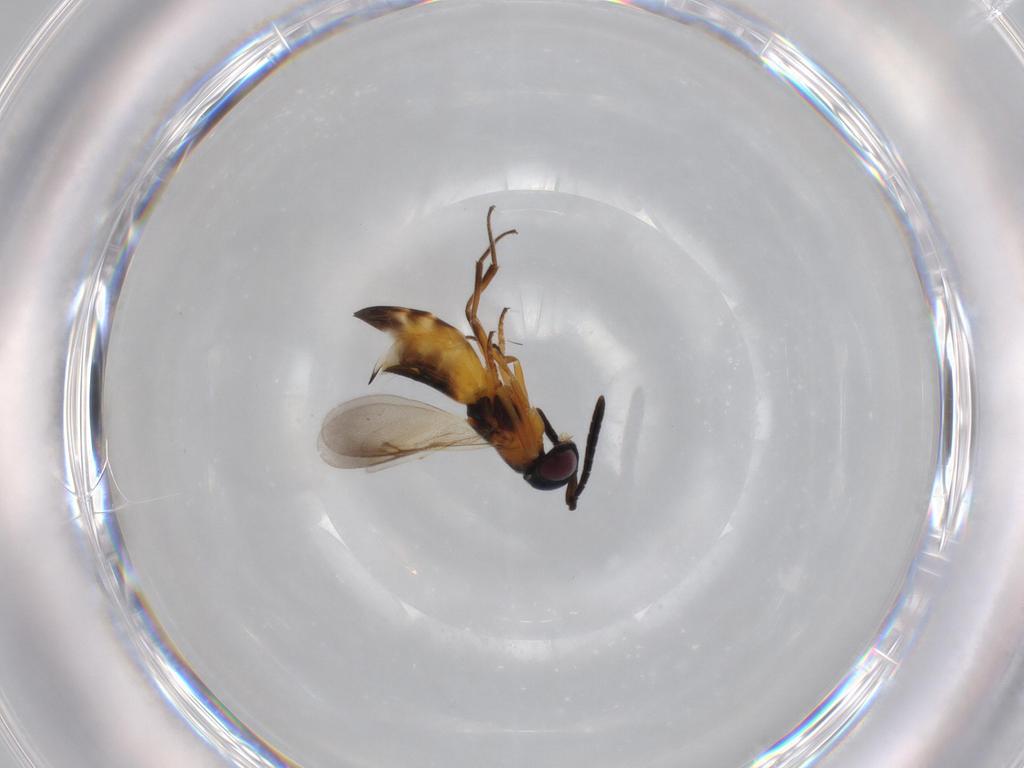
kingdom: Animalia
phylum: Arthropoda
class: Insecta
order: Hymenoptera
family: Encyrtidae
